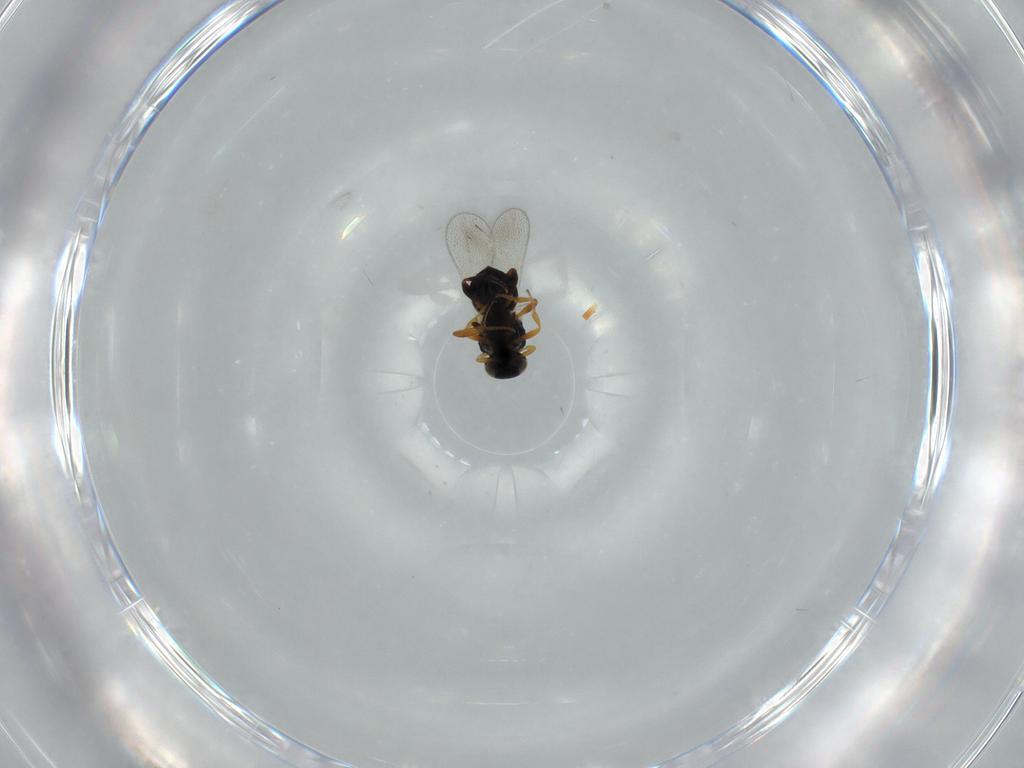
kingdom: Animalia
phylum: Arthropoda
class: Insecta
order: Hymenoptera
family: Platygastridae
